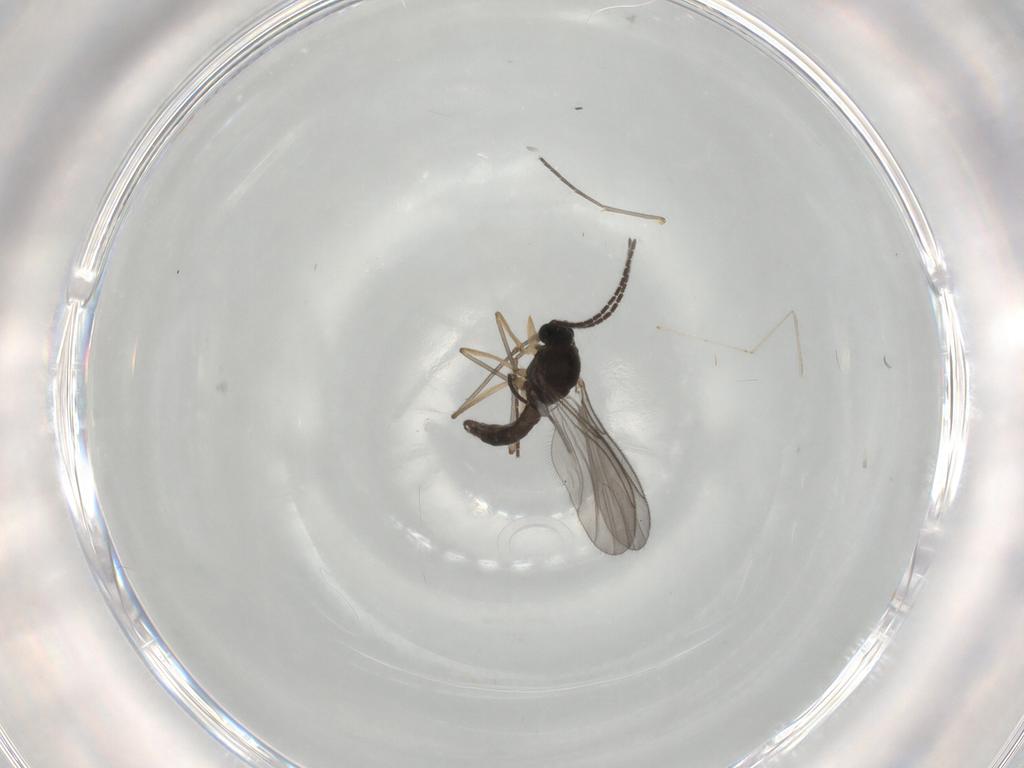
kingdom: Animalia
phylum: Arthropoda
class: Insecta
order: Diptera
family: Sciaridae
